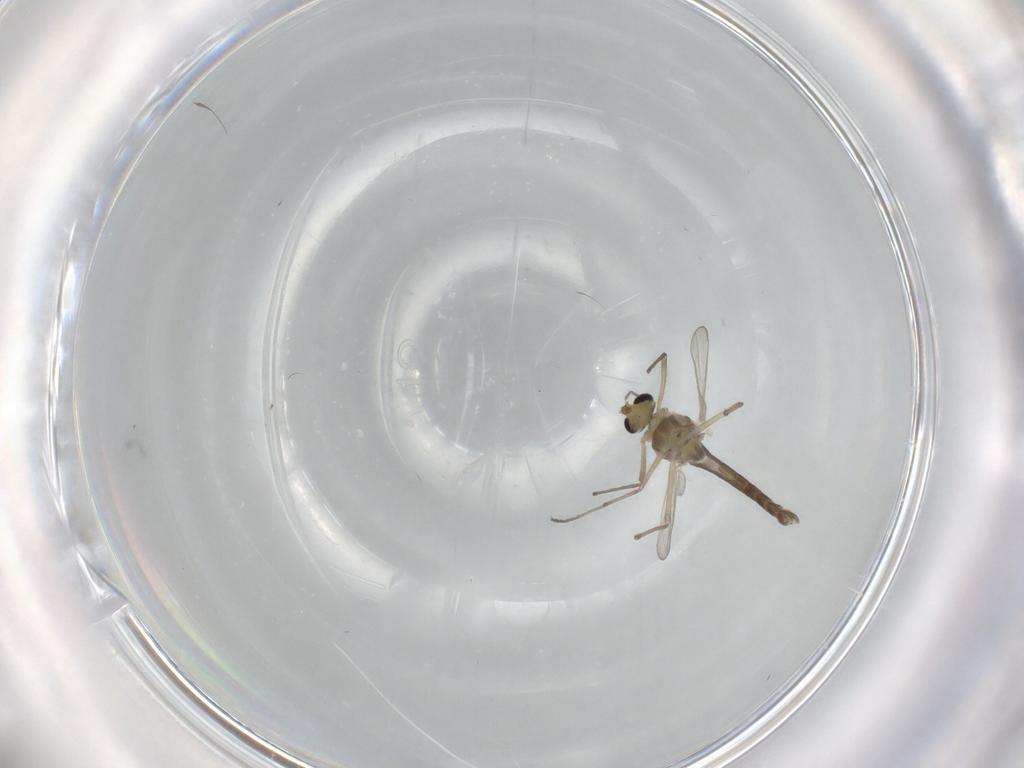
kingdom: Animalia
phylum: Arthropoda
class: Insecta
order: Diptera
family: Chironomidae
